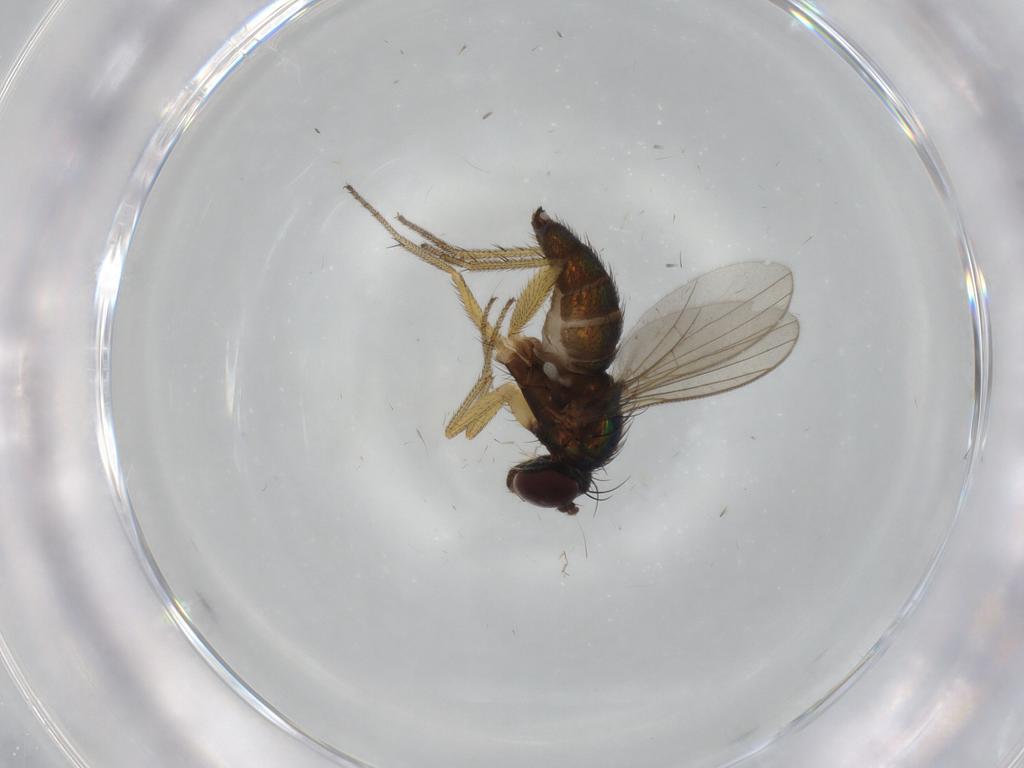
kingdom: Animalia
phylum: Arthropoda
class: Insecta
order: Diptera
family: Dolichopodidae
